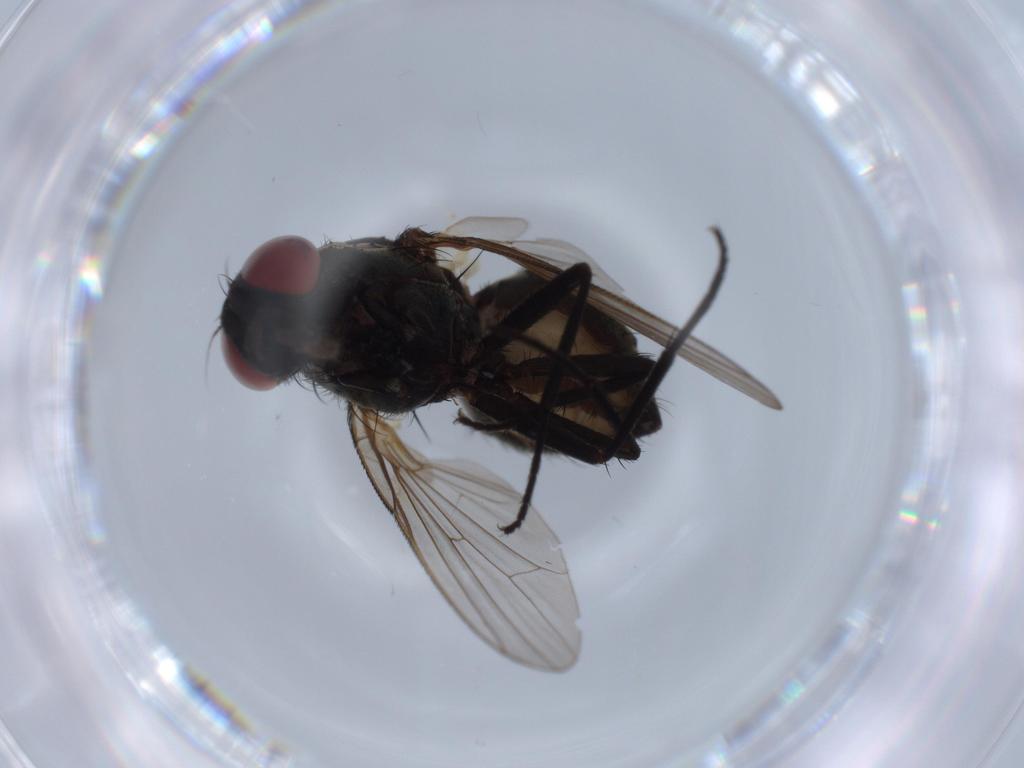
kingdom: Animalia
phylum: Arthropoda
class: Insecta
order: Diptera
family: Anthomyiidae
